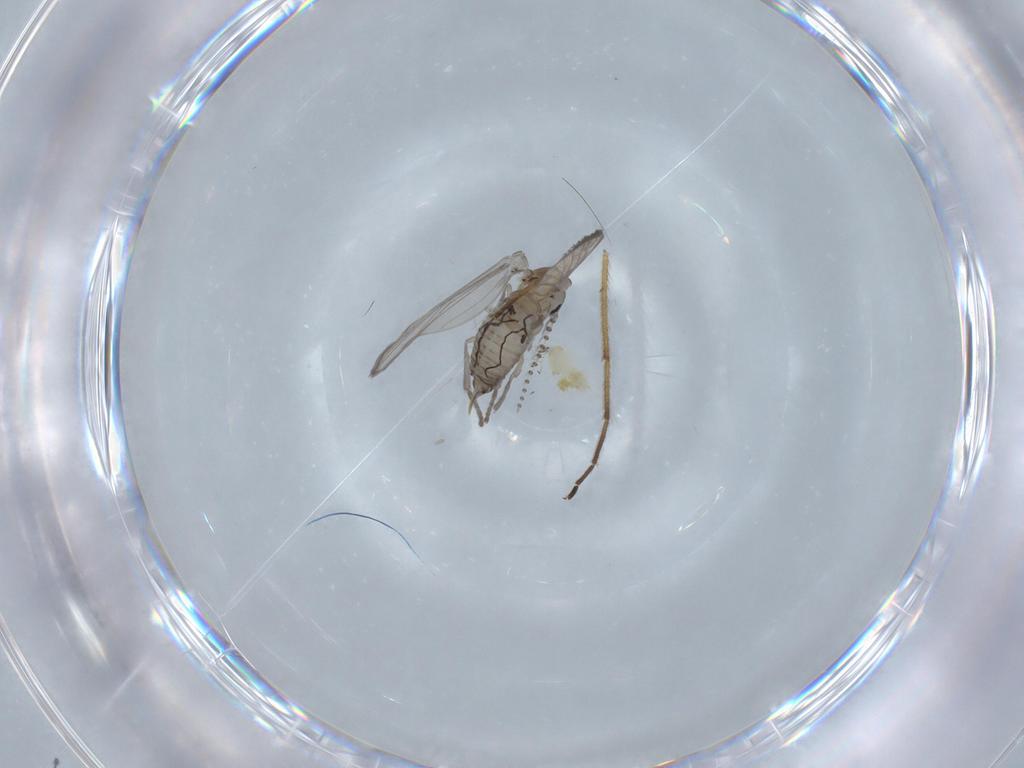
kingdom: Animalia
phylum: Arthropoda
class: Insecta
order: Diptera
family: Psychodidae
